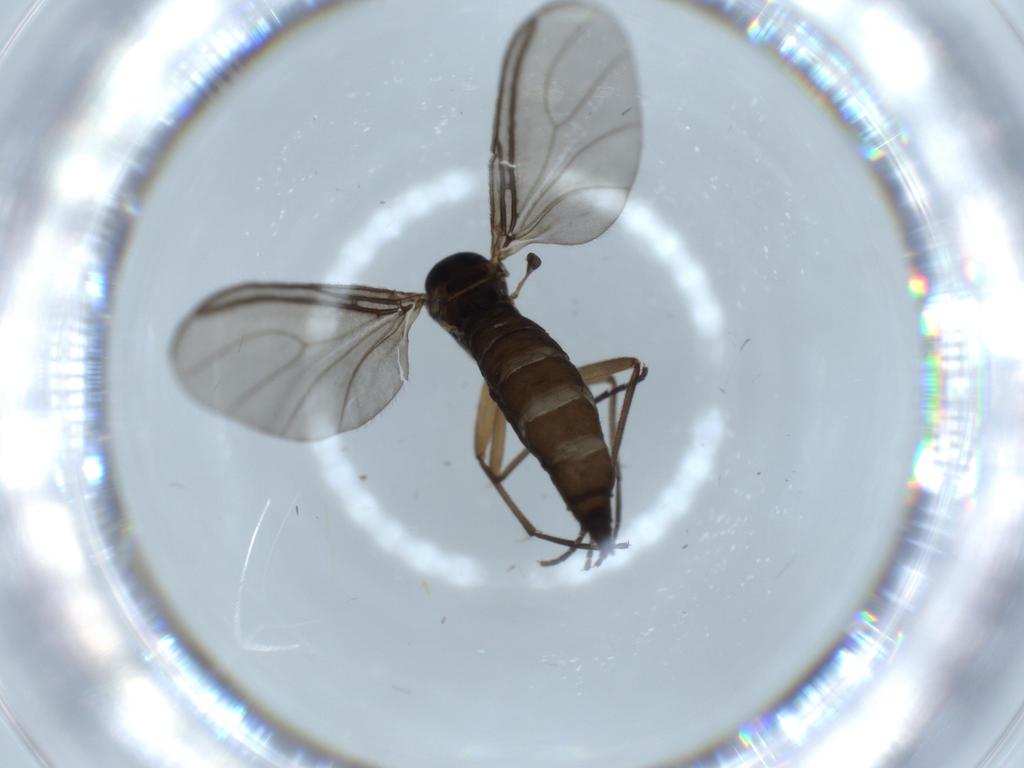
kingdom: Animalia
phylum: Arthropoda
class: Insecta
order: Diptera
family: Sciaridae
